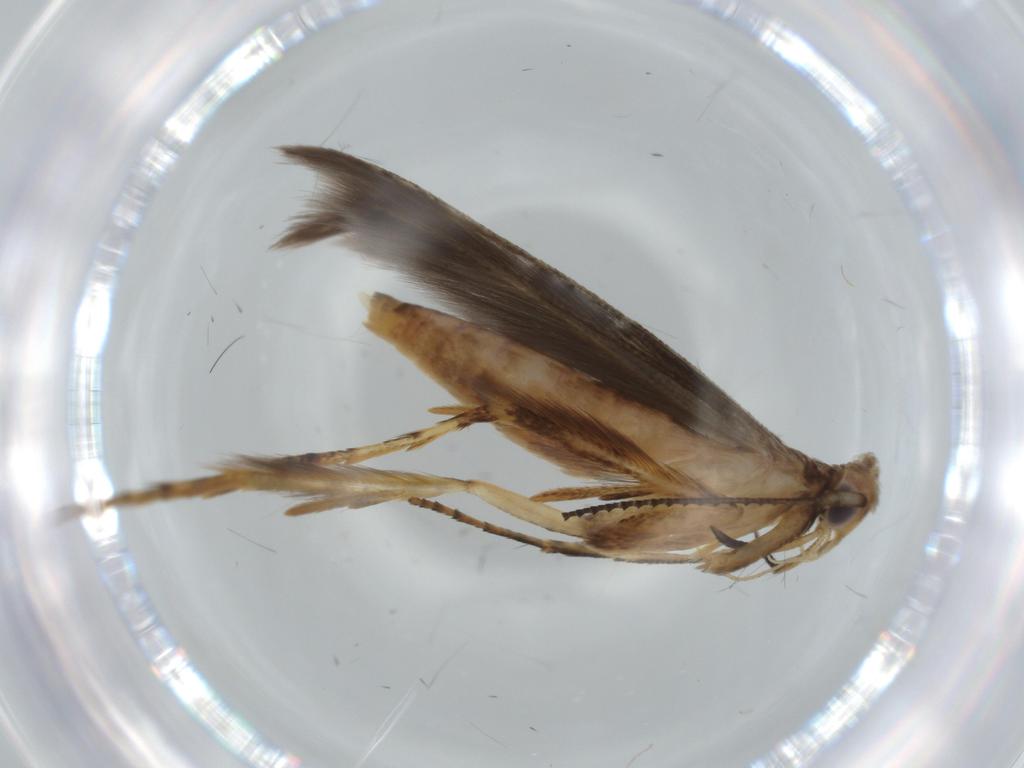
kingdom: Animalia
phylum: Arthropoda
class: Insecta
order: Lepidoptera
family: Heliodinidae
